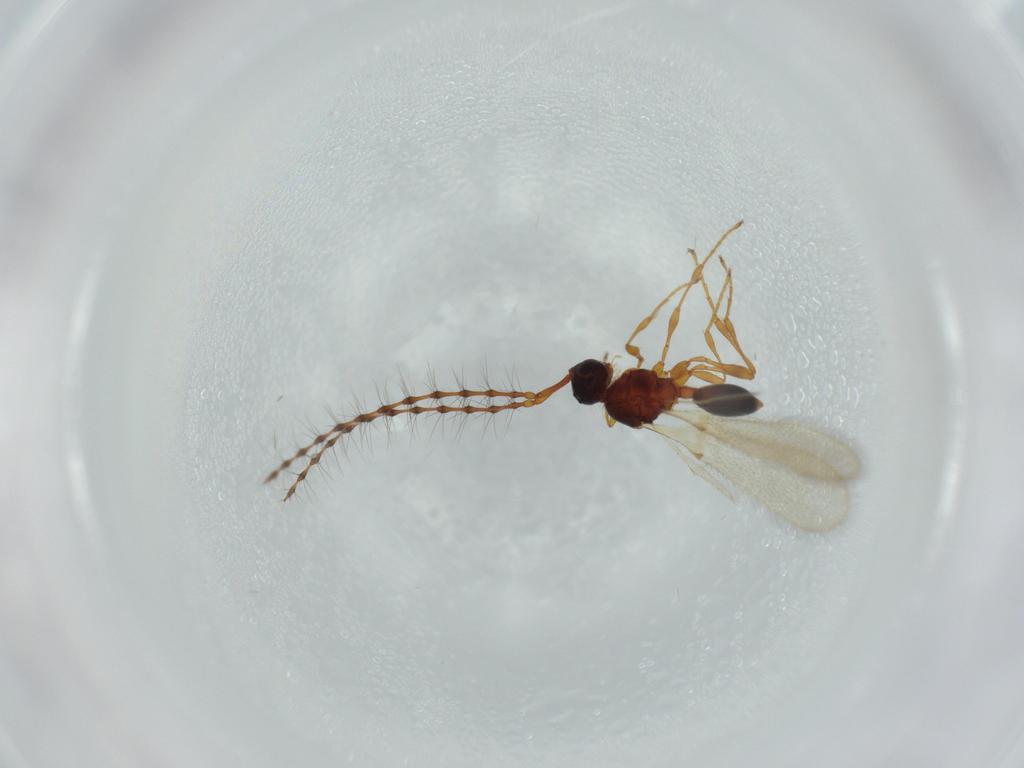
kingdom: Animalia
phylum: Arthropoda
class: Insecta
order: Hymenoptera
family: Diapriidae
